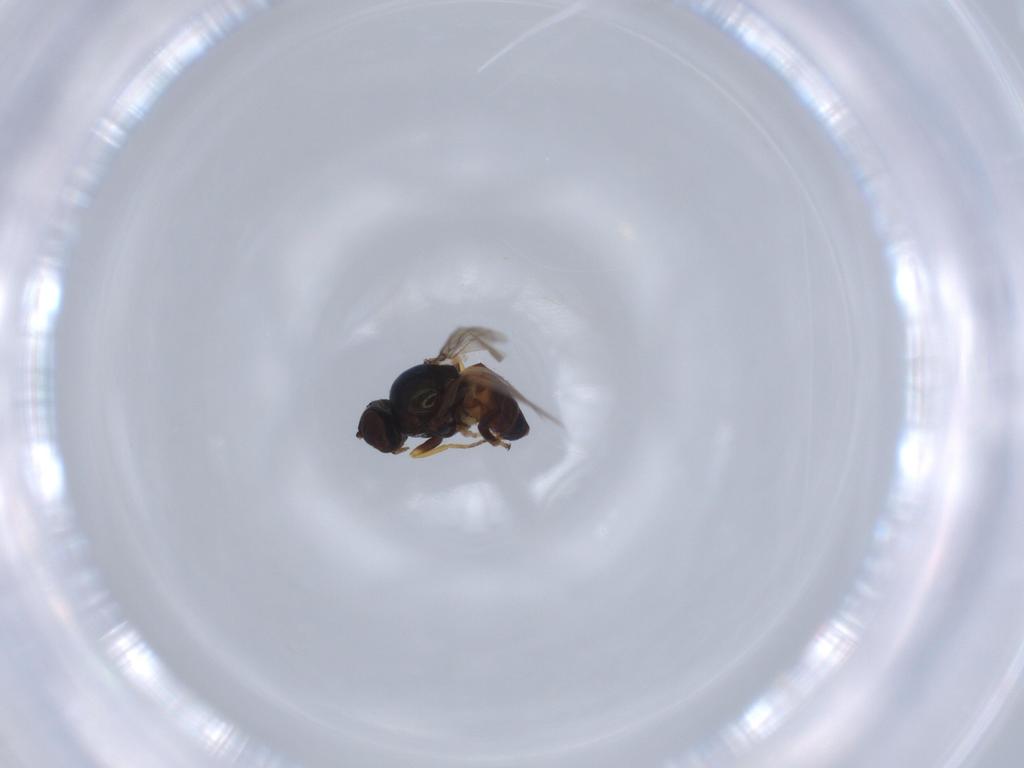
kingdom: Animalia
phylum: Arthropoda
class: Insecta
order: Diptera
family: Chloropidae
